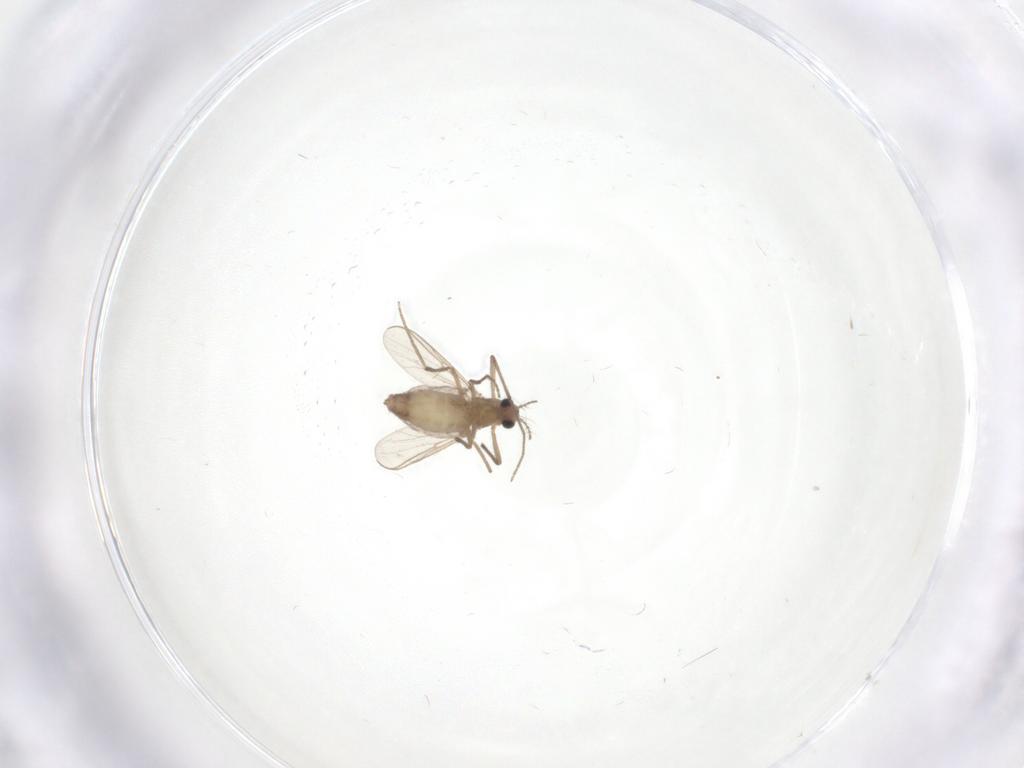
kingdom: Animalia
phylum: Arthropoda
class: Insecta
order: Diptera
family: Chironomidae
